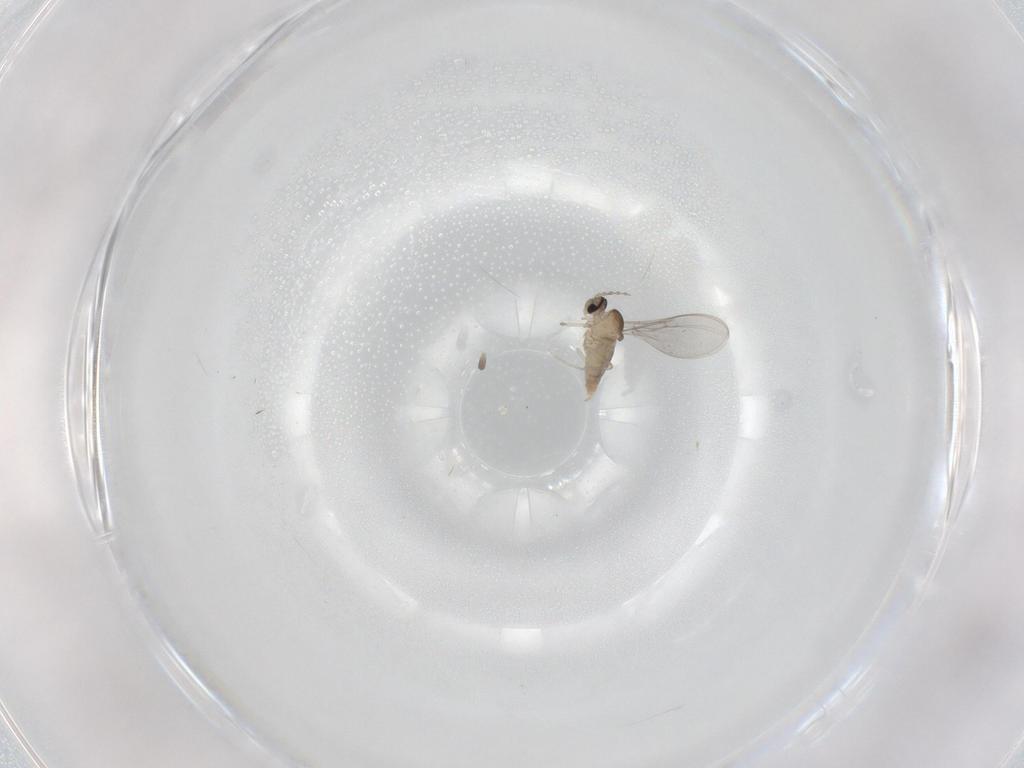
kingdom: Animalia
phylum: Arthropoda
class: Insecta
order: Diptera
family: Cecidomyiidae
